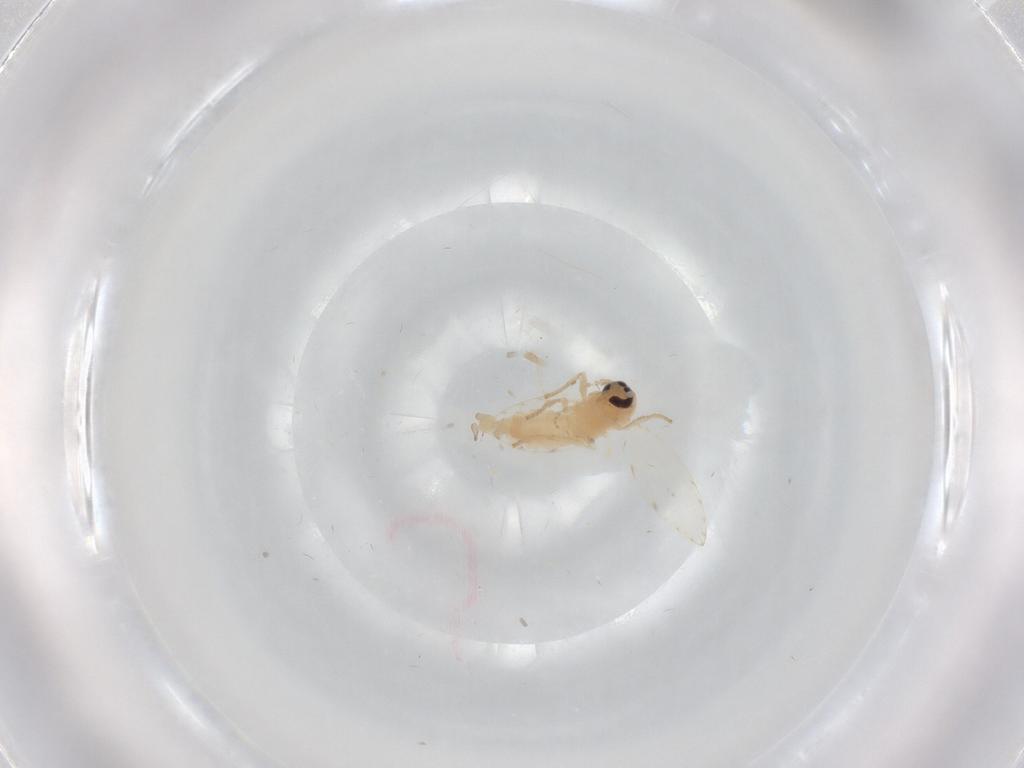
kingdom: Animalia
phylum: Arthropoda
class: Insecta
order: Diptera
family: Psychodidae
